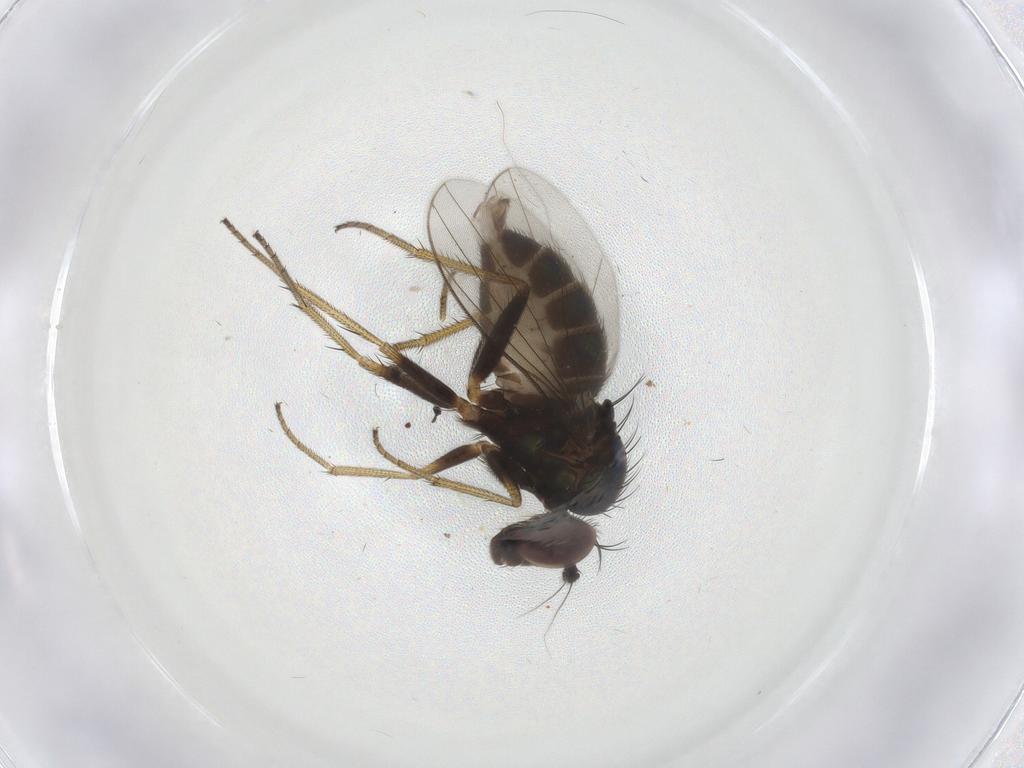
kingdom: Animalia
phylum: Arthropoda
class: Insecta
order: Diptera
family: Dolichopodidae
